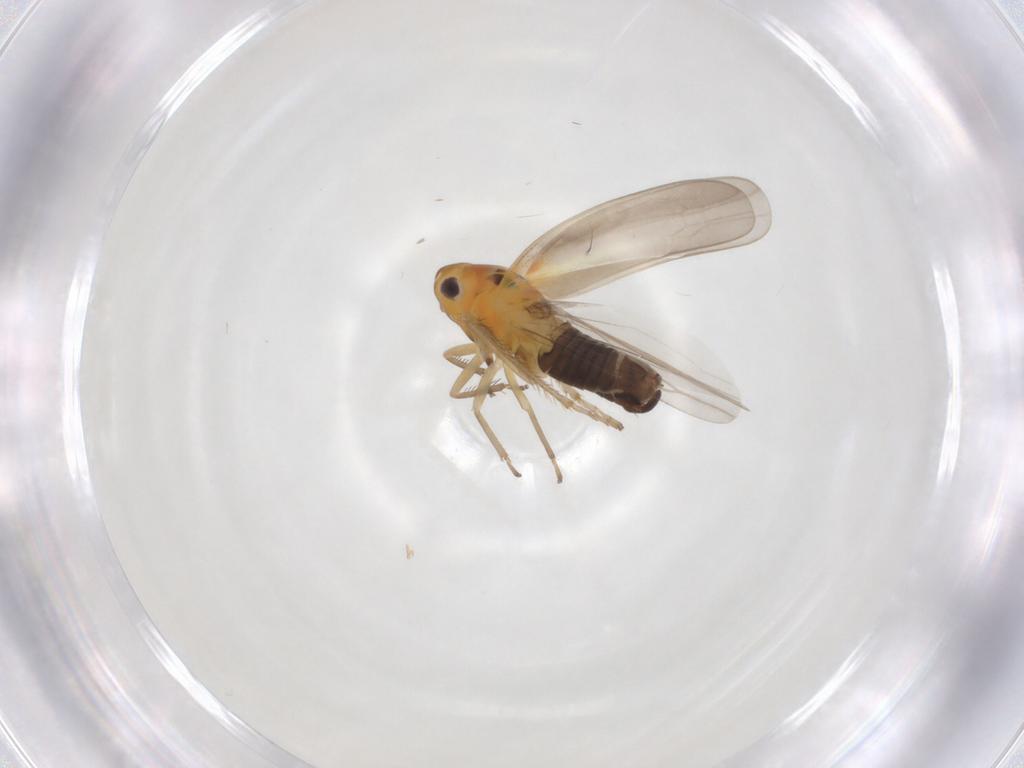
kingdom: Animalia
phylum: Arthropoda
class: Insecta
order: Hemiptera
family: Cicadellidae
